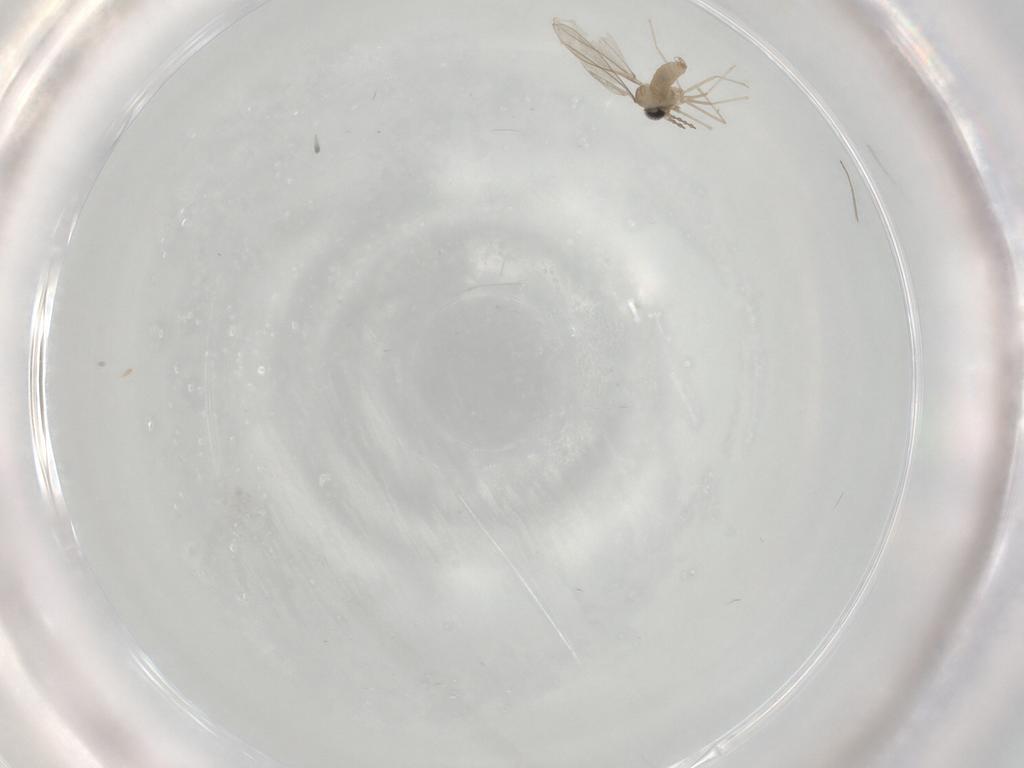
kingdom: Animalia
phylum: Arthropoda
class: Insecta
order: Diptera
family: Chironomidae
